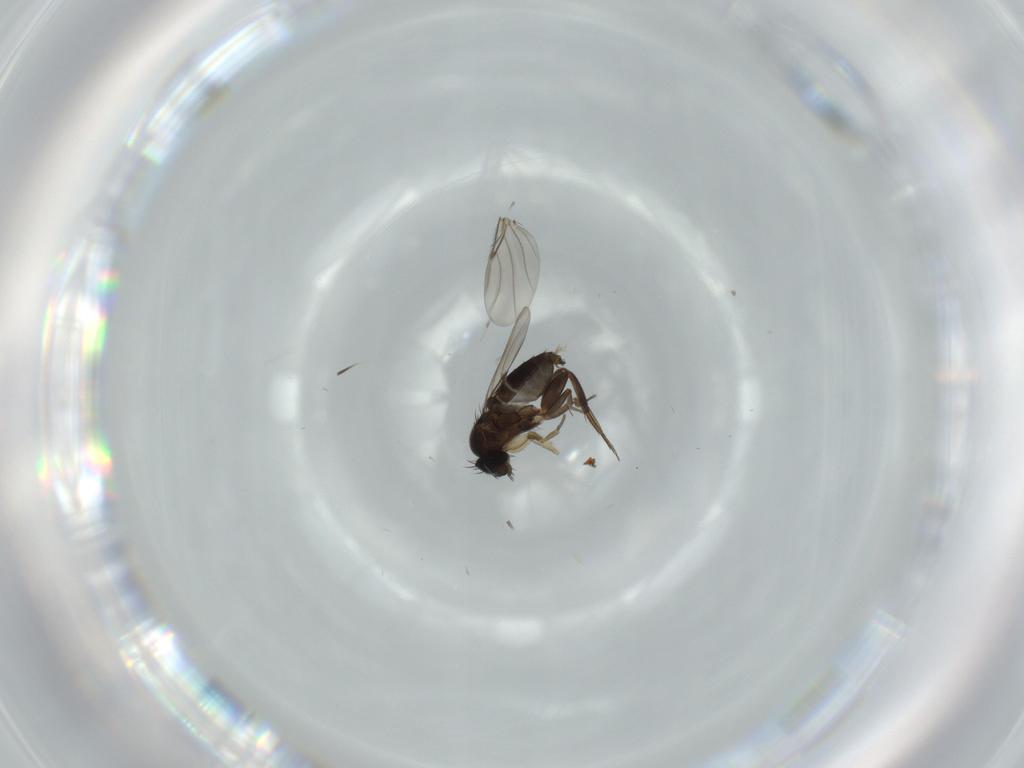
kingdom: Animalia
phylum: Arthropoda
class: Insecta
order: Diptera
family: Phoridae
